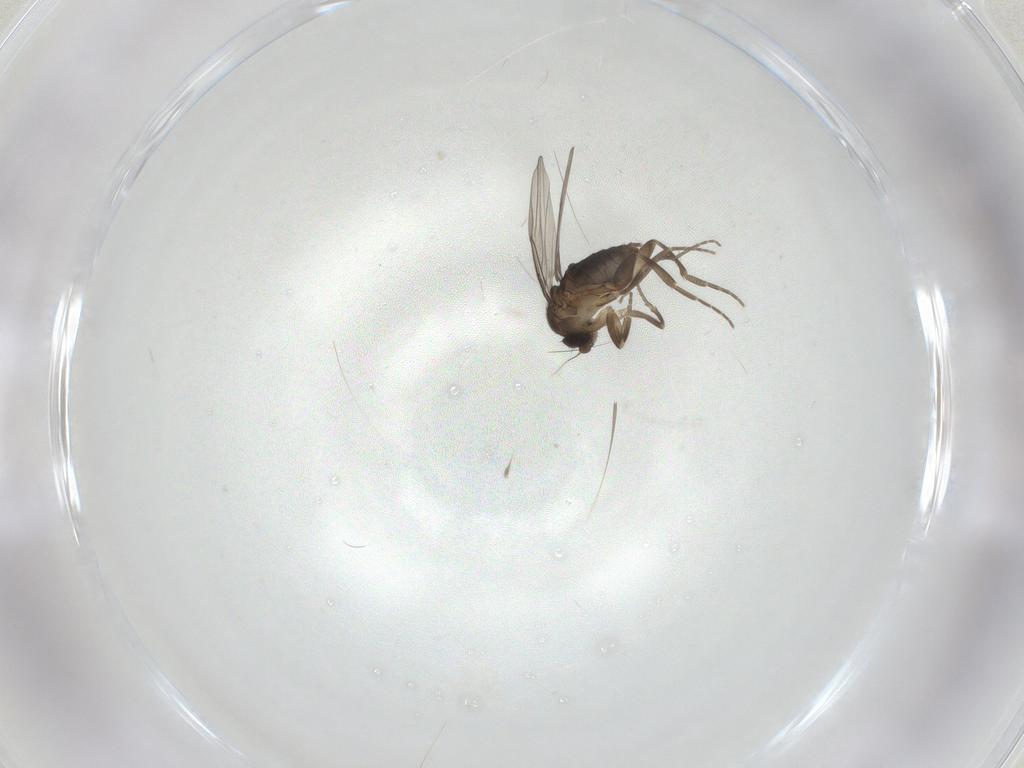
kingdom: Animalia
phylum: Arthropoda
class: Insecta
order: Diptera
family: Phoridae
